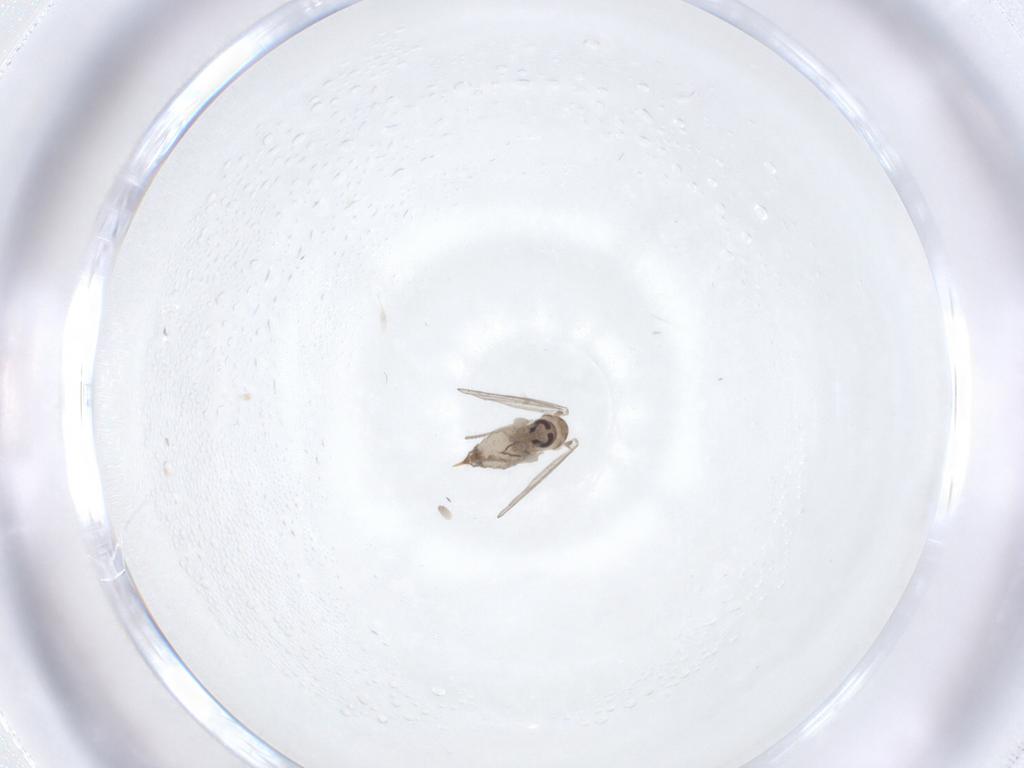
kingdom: Animalia
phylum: Arthropoda
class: Insecta
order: Diptera
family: Psychodidae
